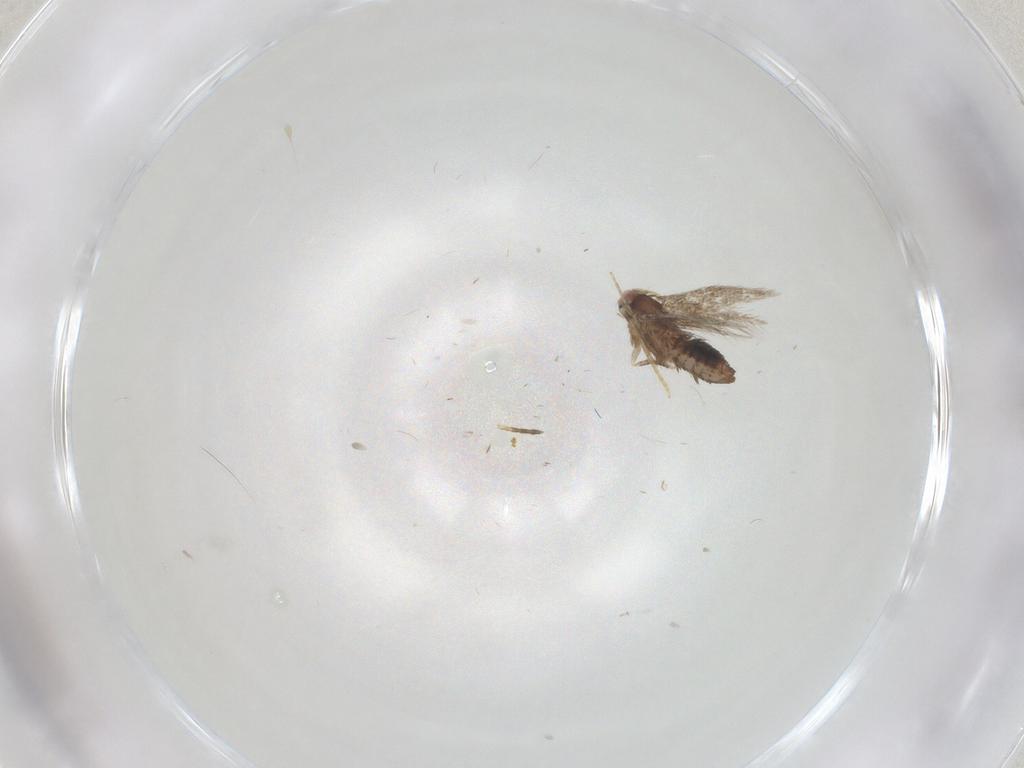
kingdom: Animalia
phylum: Arthropoda
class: Insecta
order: Lepidoptera
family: Nepticulidae
